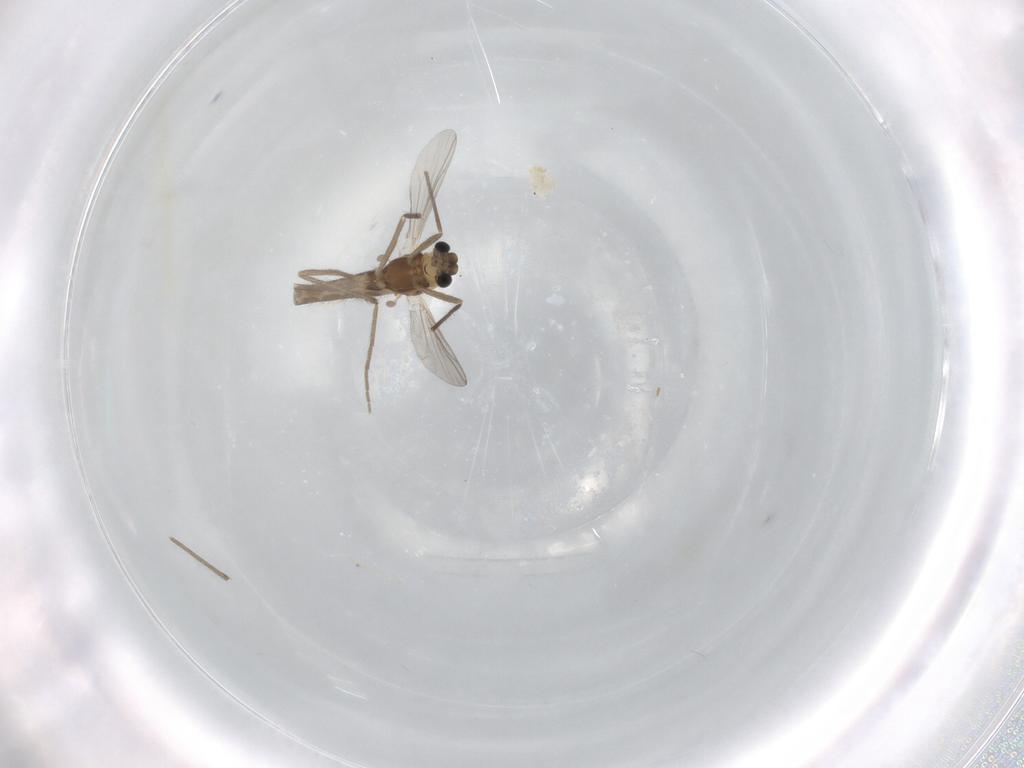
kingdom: Animalia
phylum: Arthropoda
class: Insecta
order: Diptera
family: Chironomidae
